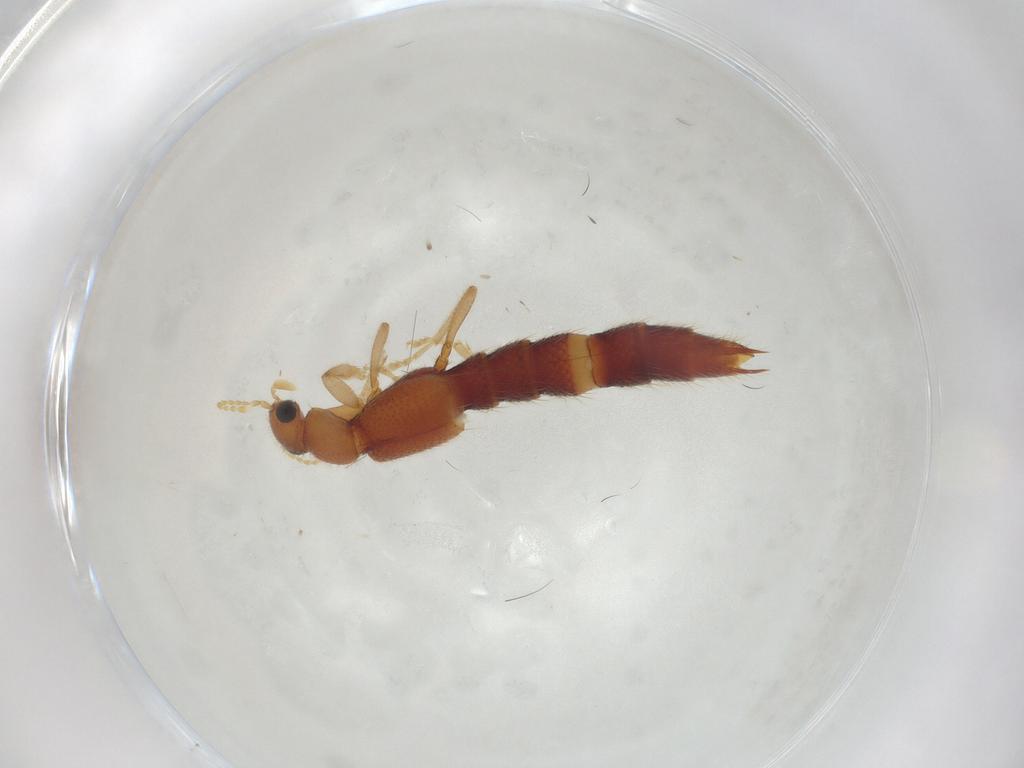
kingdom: Animalia
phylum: Arthropoda
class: Insecta
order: Coleoptera
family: Staphylinidae
